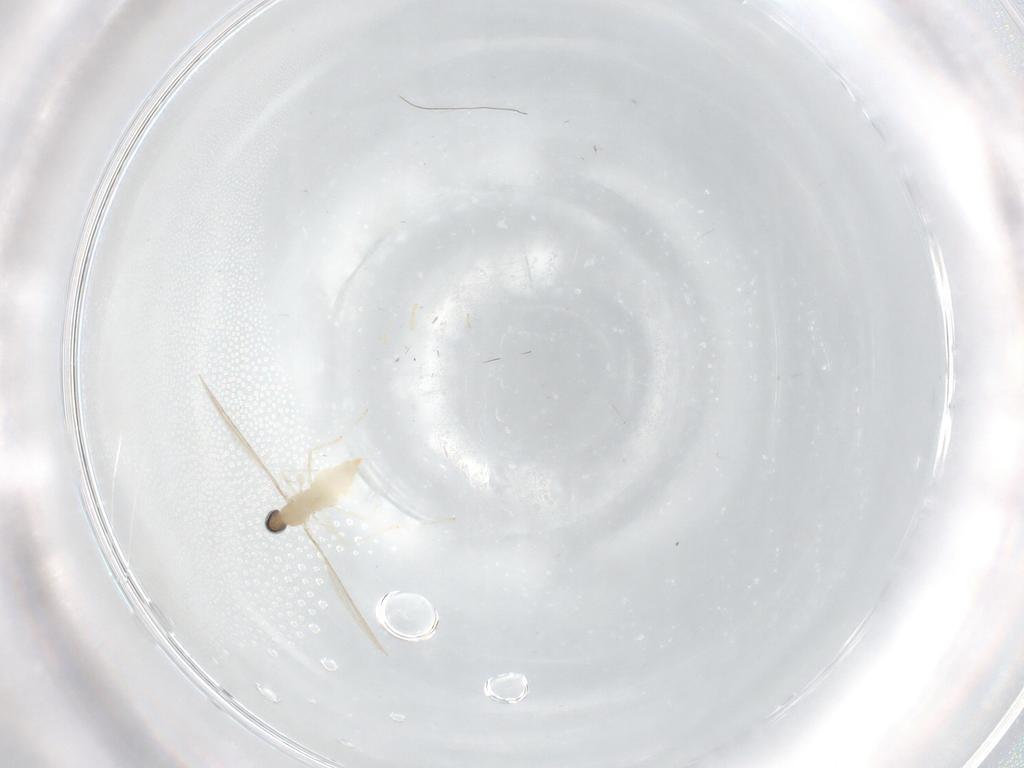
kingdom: Animalia
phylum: Arthropoda
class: Insecta
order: Diptera
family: Cecidomyiidae
